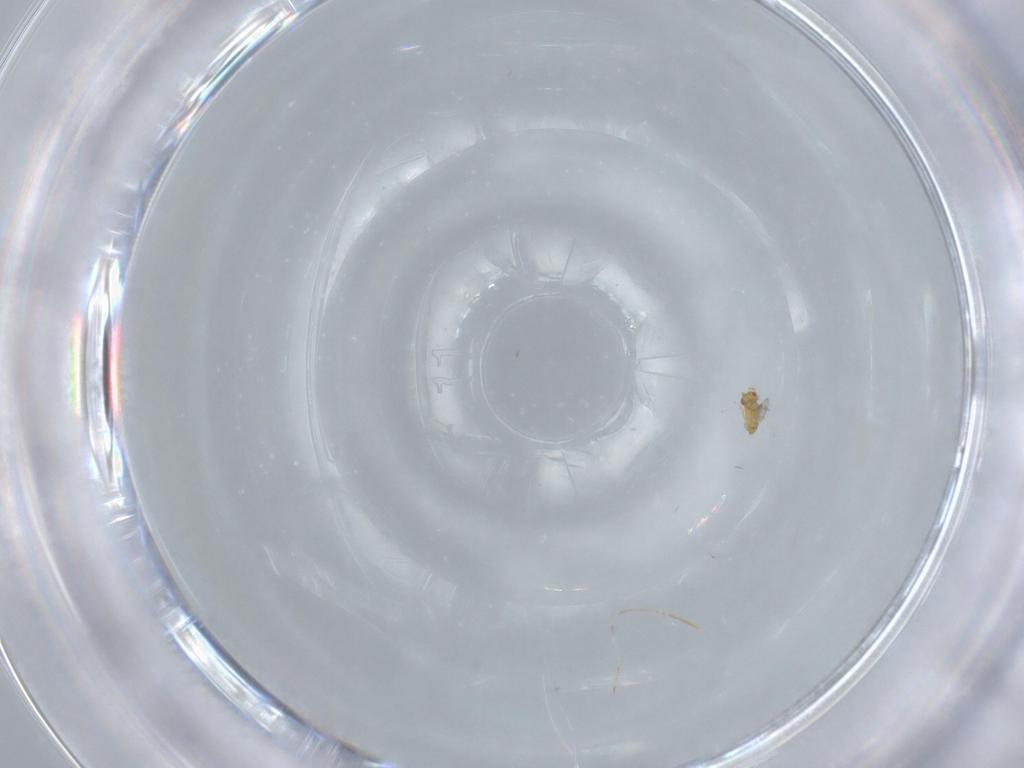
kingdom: Animalia
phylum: Arthropoda
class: Insecta
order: Hymenoptera
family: Trichogrammatidae
